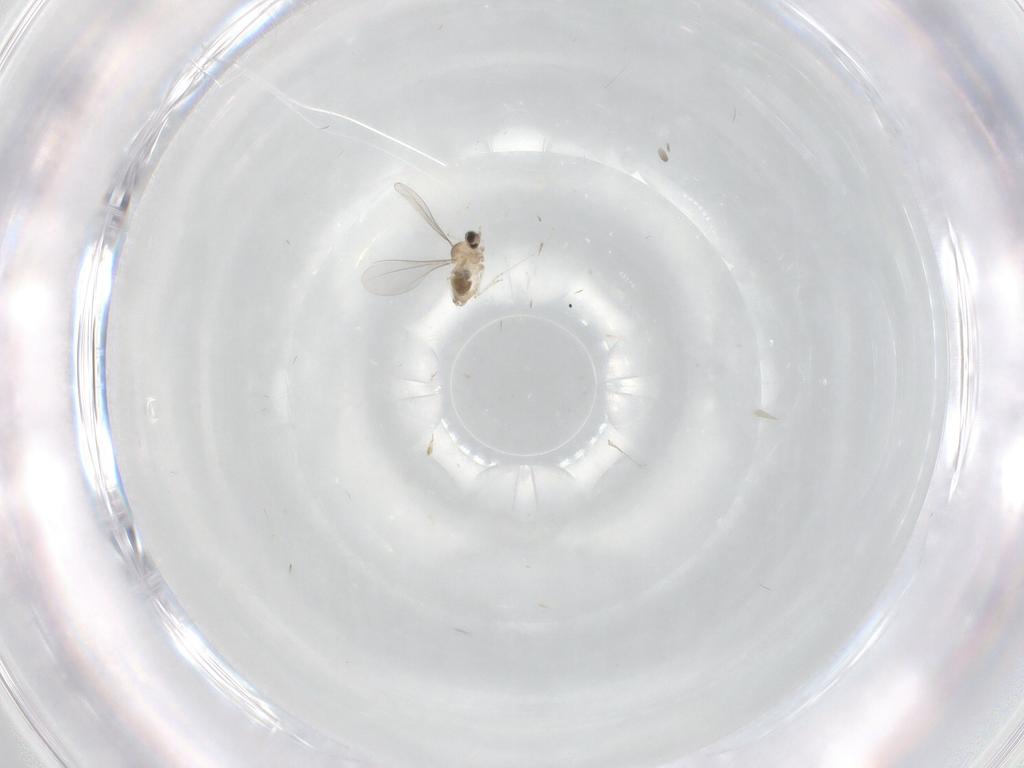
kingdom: Animalia
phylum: Arthropoda
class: Insecta
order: Diptera
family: Cecidomyiidae
